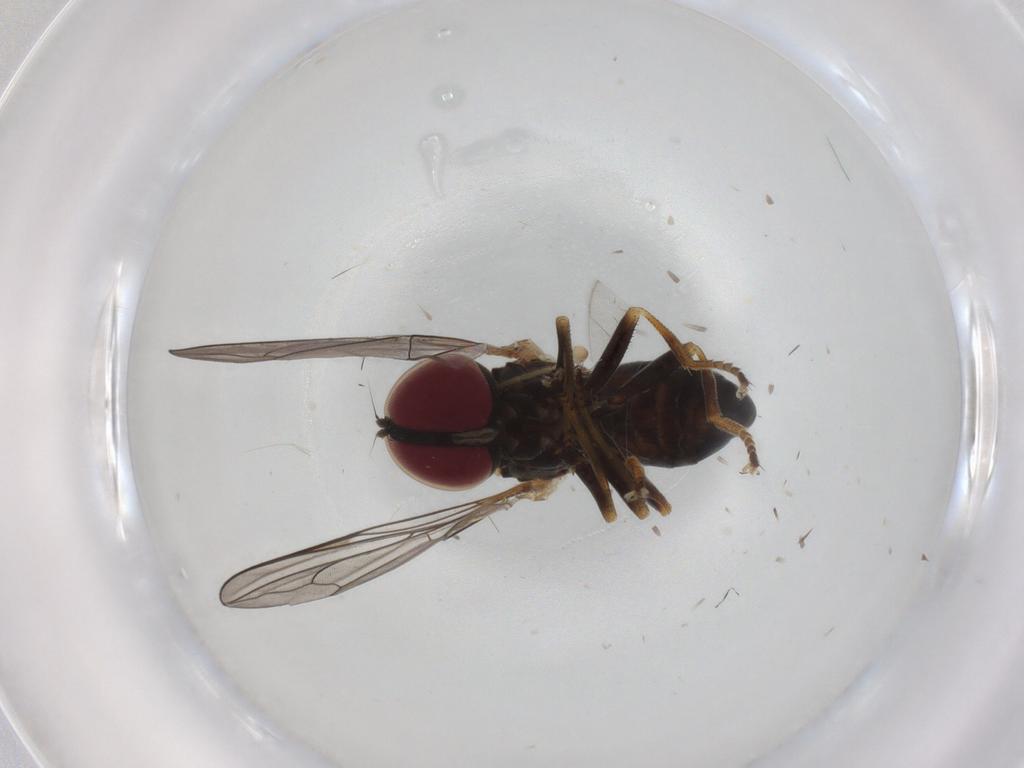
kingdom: Animalia
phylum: Arthropoda
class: Insecta
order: Diptera
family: Pipunculidae
